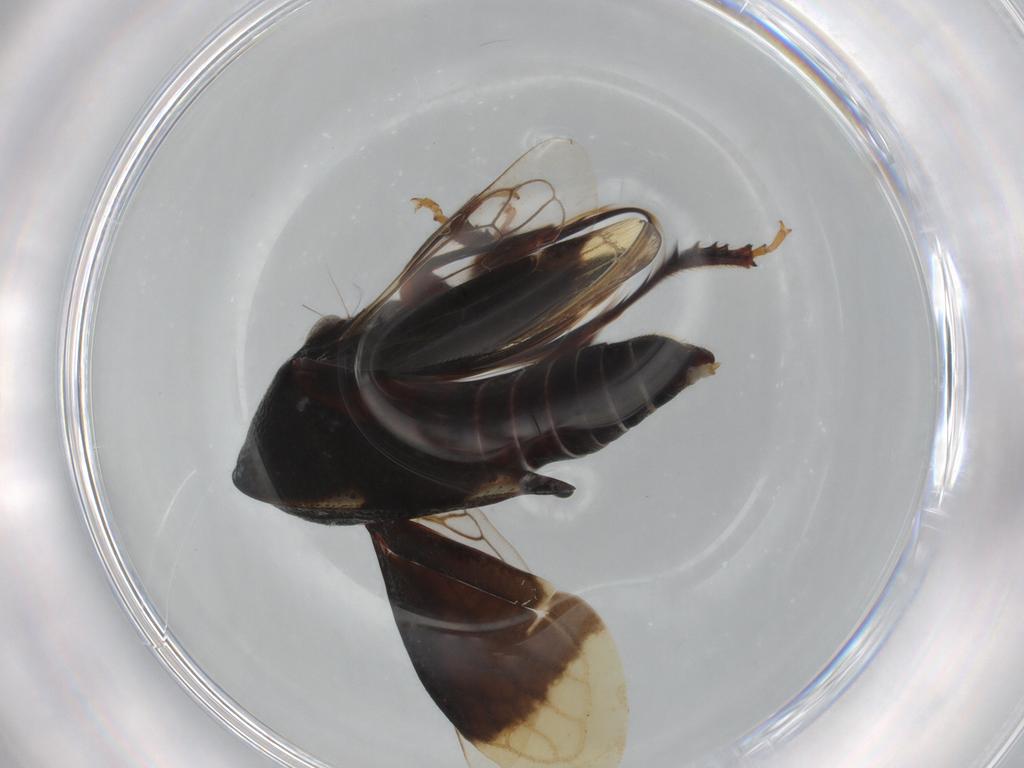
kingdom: Animalia
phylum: Arthropoda
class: Insecta
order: Hemiptera
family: Membracidae
